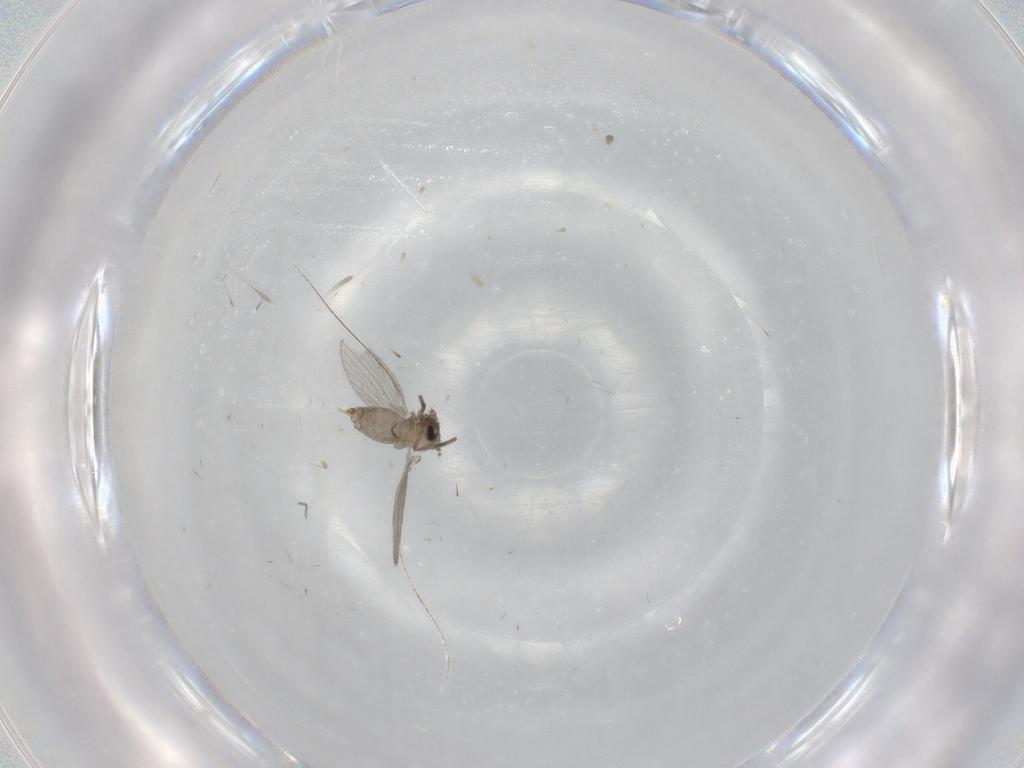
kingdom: Animalia
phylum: Arthropoda
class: Insecta
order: Diptera
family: Psychodidae
